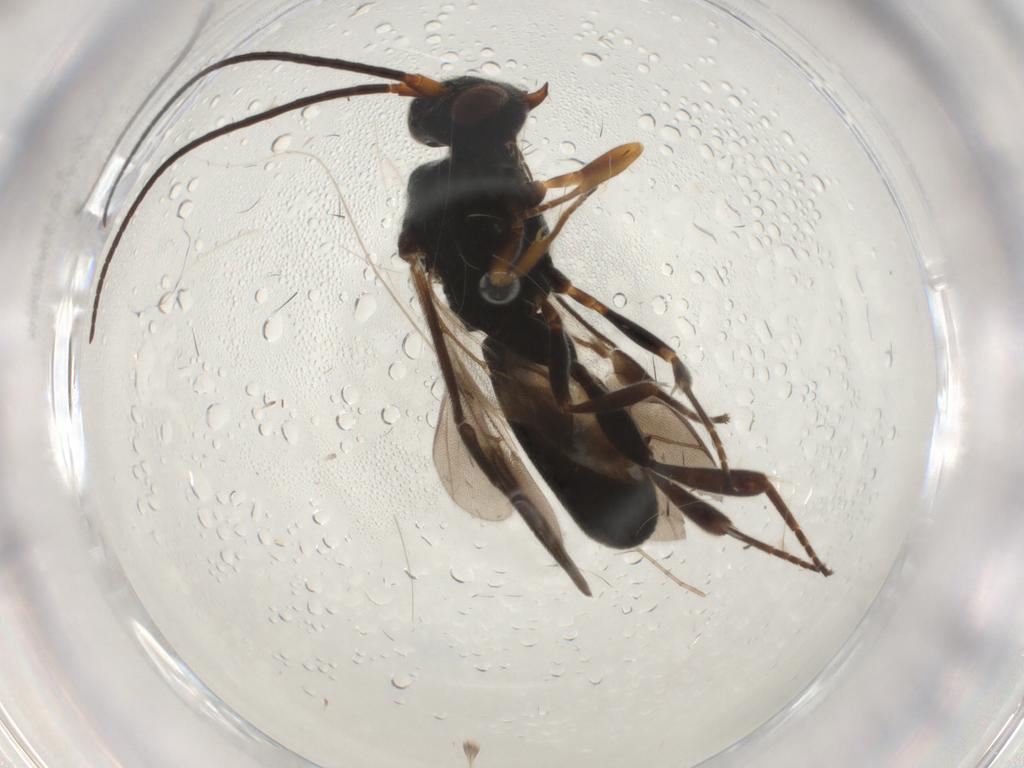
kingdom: Animalia
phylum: Arthropoda
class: Insecta
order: Hymenoptera
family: Braconidae
